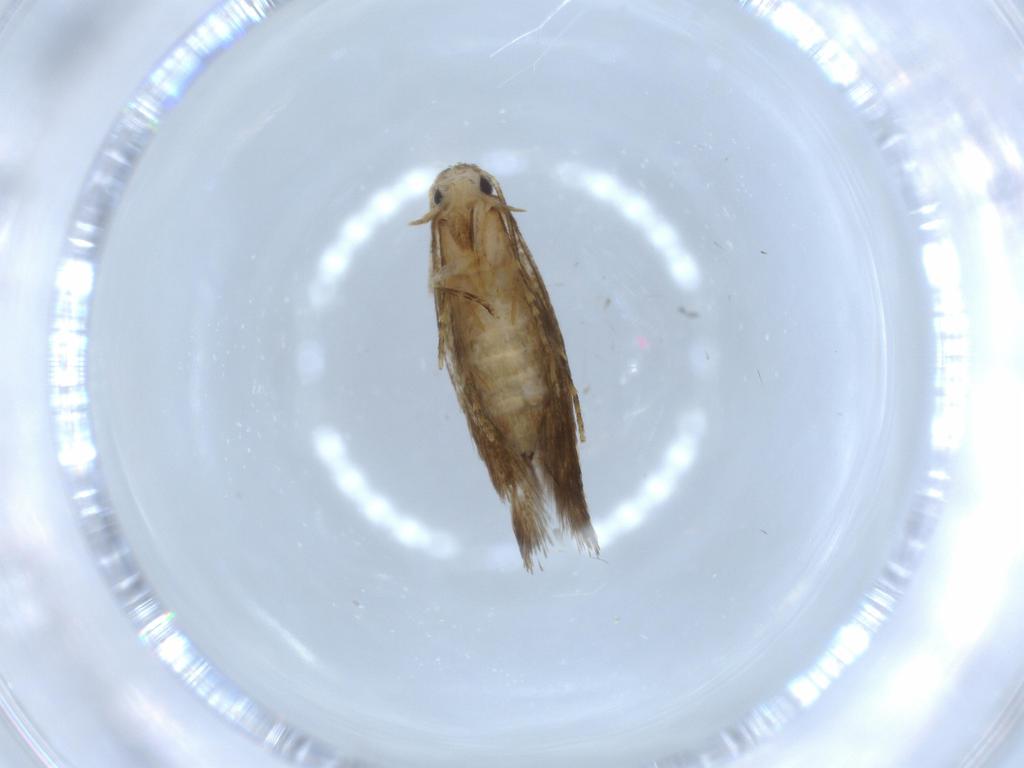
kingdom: Animalia
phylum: Arthropoda
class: Insecta
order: Lepidoptera
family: Tineidae
